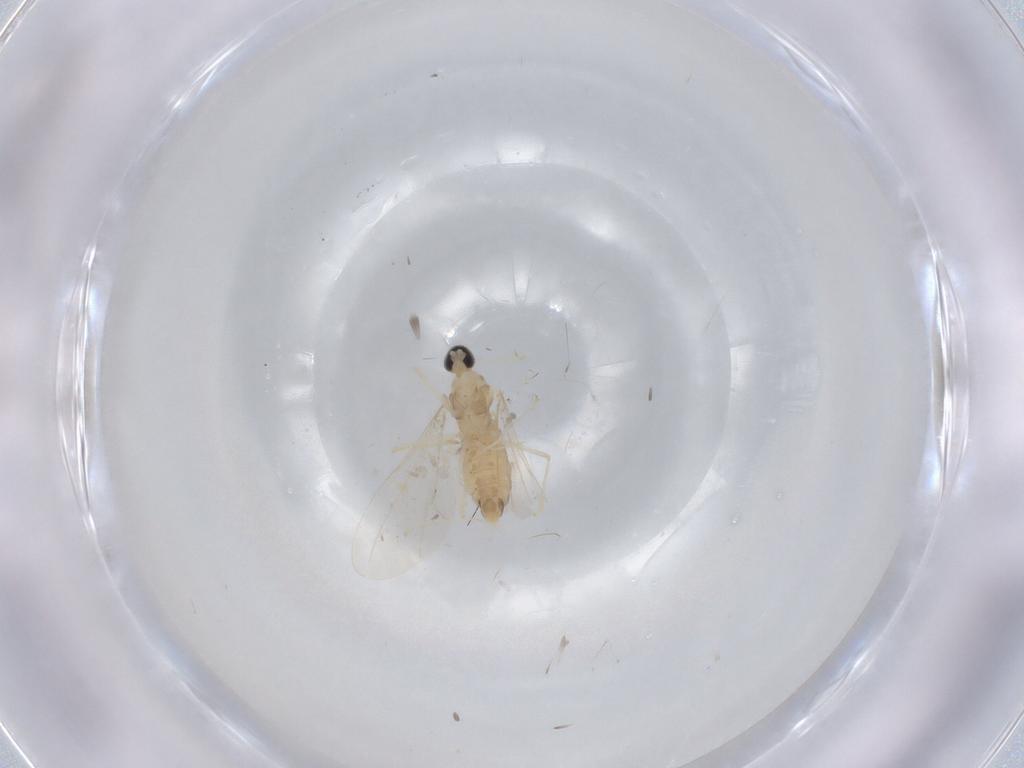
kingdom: Animalia
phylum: Arthropoda
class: Insecta
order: Diptera
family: Cecidomyiidae
